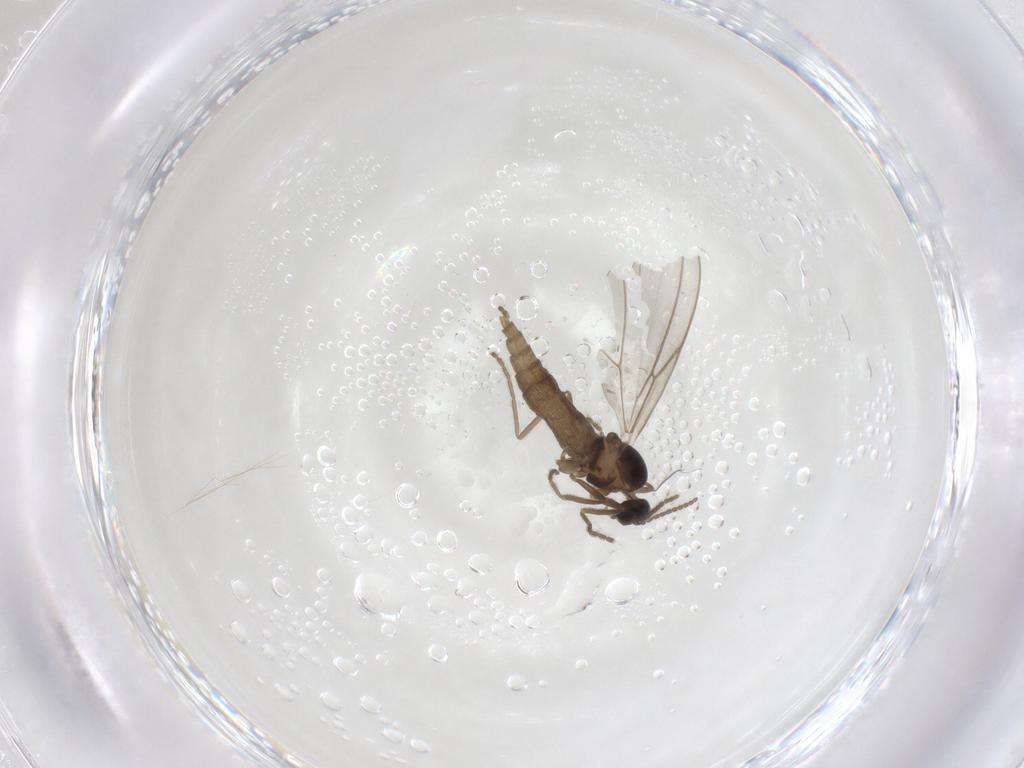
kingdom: Animalia
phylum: Arthropoda
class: Insecta
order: Diptera
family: Cecidomyiidae
